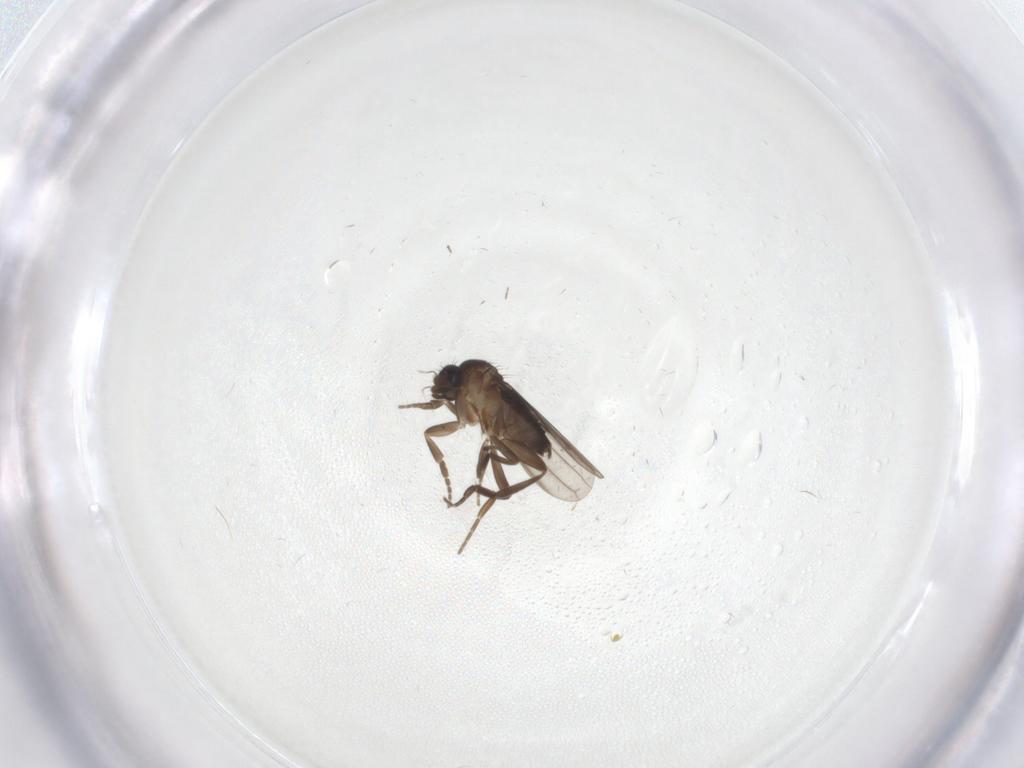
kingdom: Animalia
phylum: Arthropoda
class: Insecta
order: Diptera
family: Phoridae
